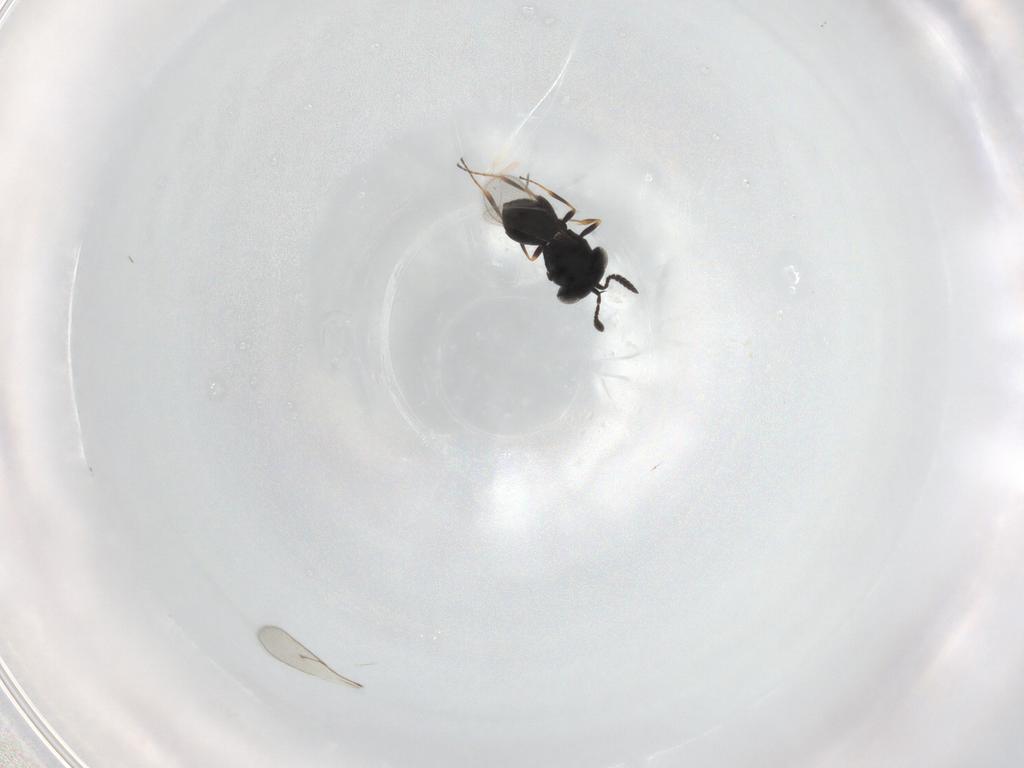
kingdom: Animalia
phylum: Arthropoda
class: Insecta
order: Hymenoptera
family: Scelionidae
